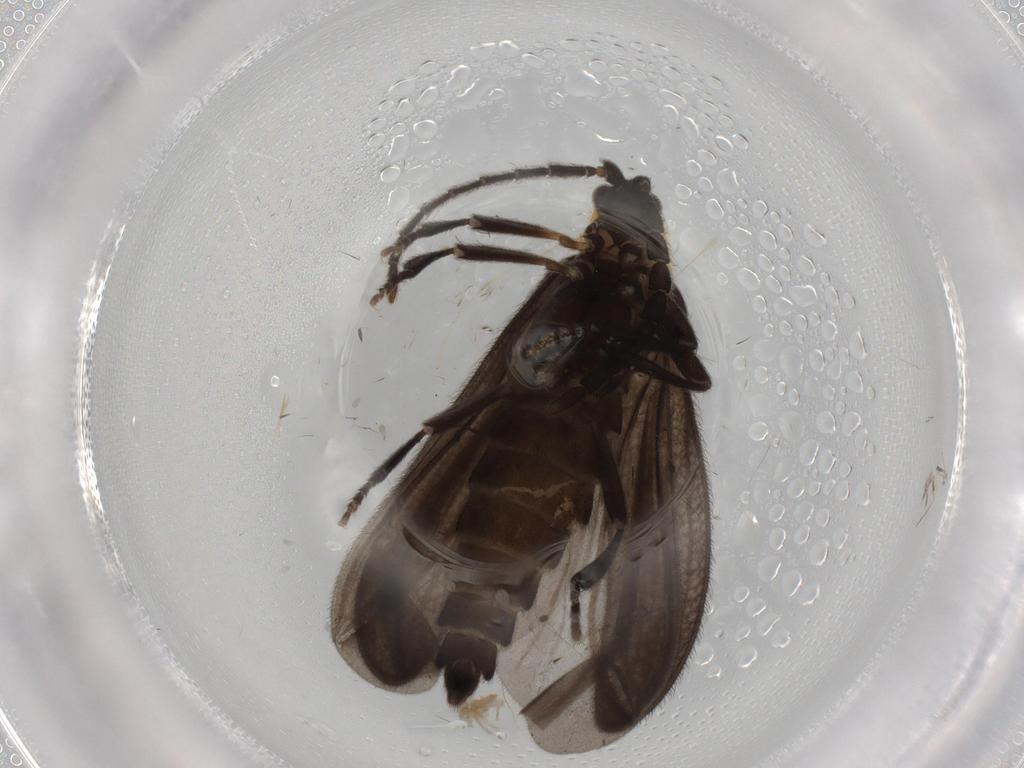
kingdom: Animalia
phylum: Arthropoda
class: Insecta
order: Coleoptera
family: Lycidae
